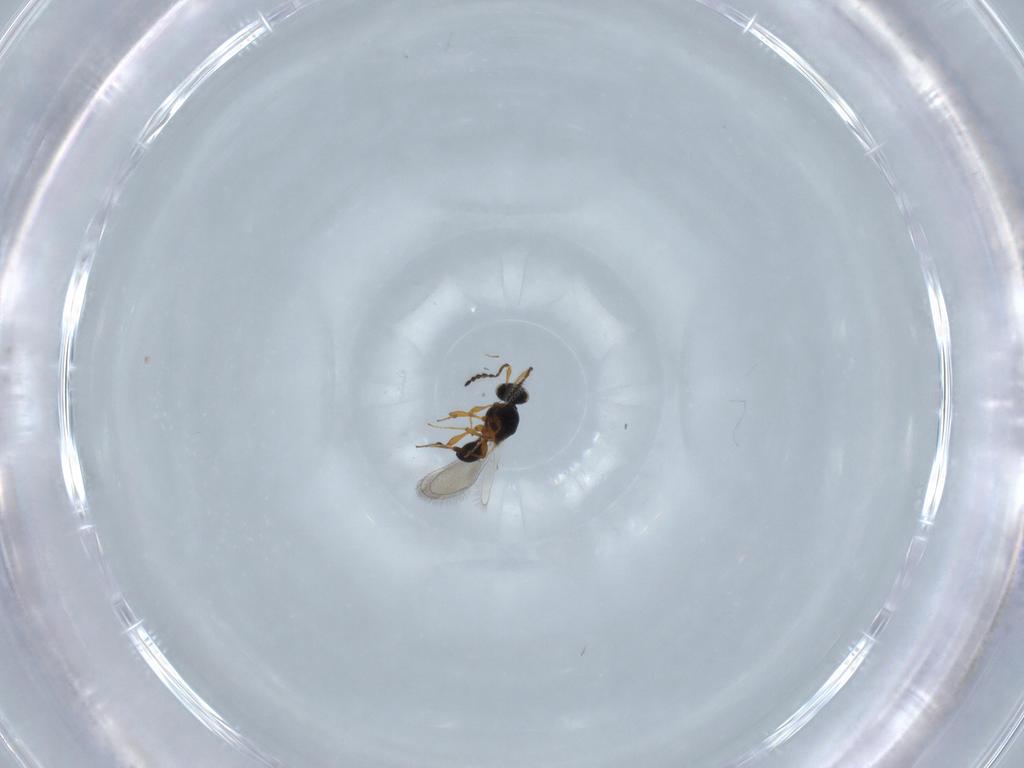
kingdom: Animalia
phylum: Arthropoda
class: Insecta
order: Hymenoptera
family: Platygastridae
